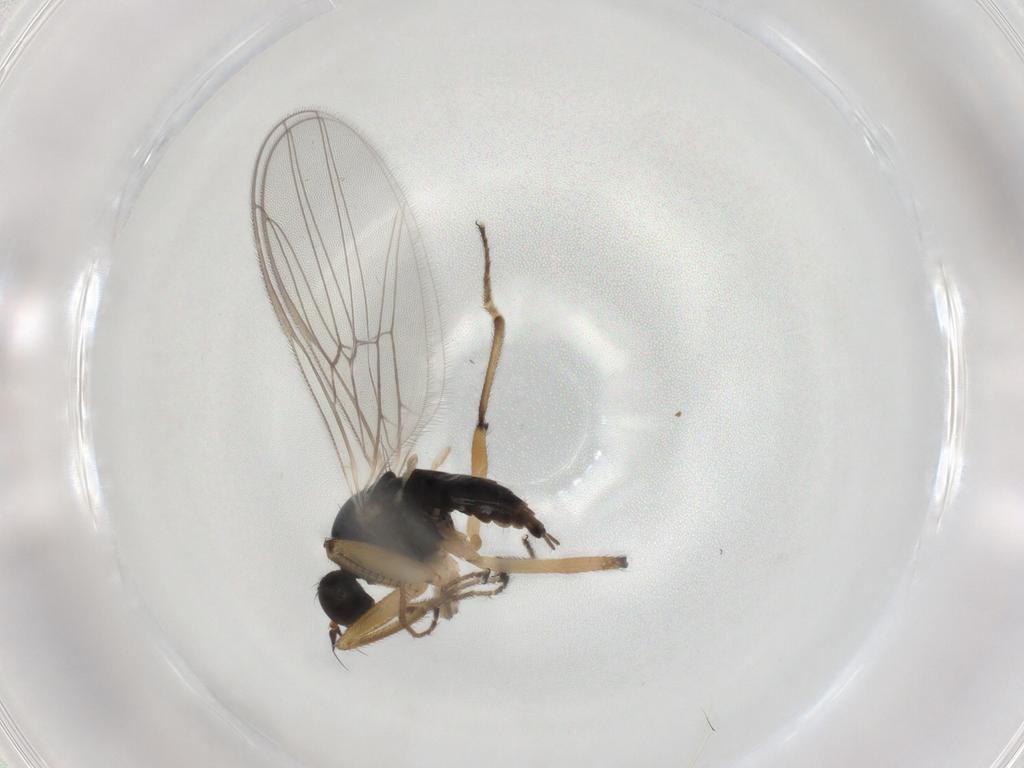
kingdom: Animalia
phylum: Arthropoda
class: Insecta
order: Diptera
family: Hybotidae
